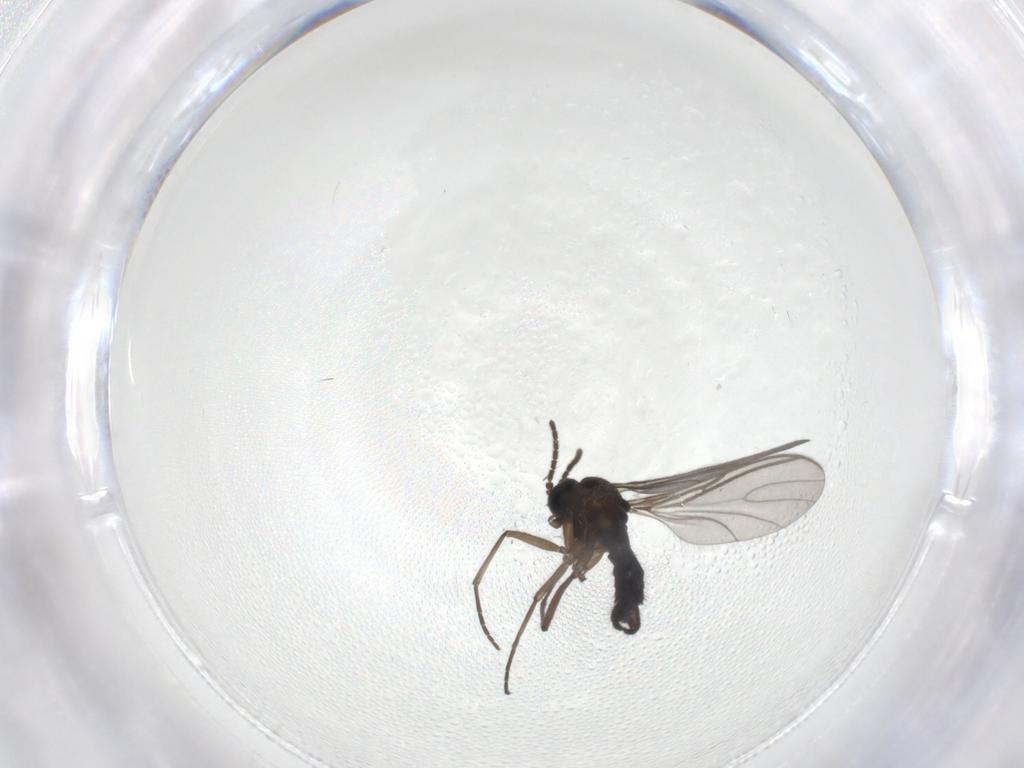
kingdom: Animalia
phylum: Arthropoda
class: Insecta
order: Diptera
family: Sciaridae
